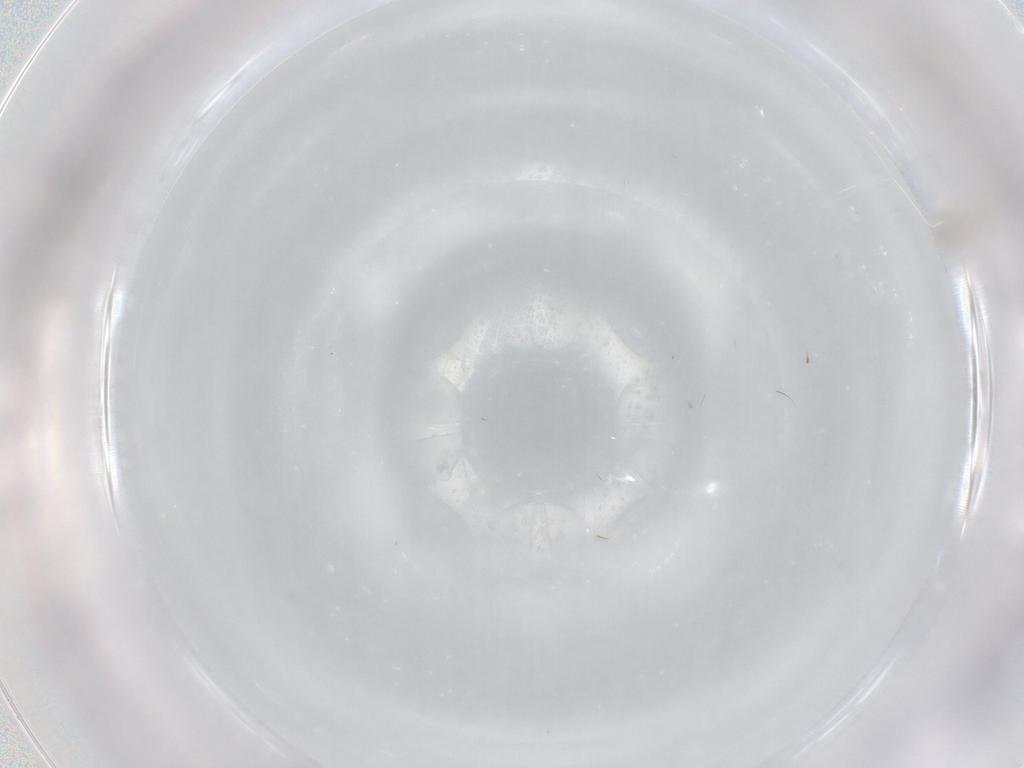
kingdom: Animalia
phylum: Arthropoda
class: Insecta
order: Hymenoptera
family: Mymaridae
